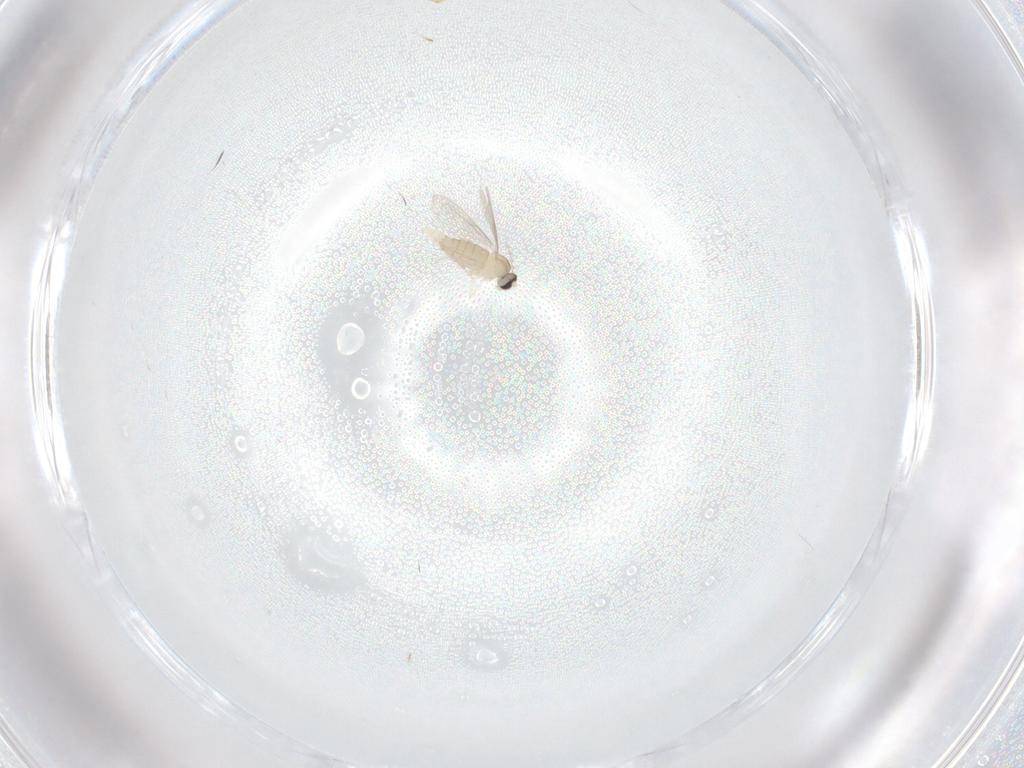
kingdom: Animalia
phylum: Arthropoda
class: Insecta
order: Diptera
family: Cecidomyiidae
